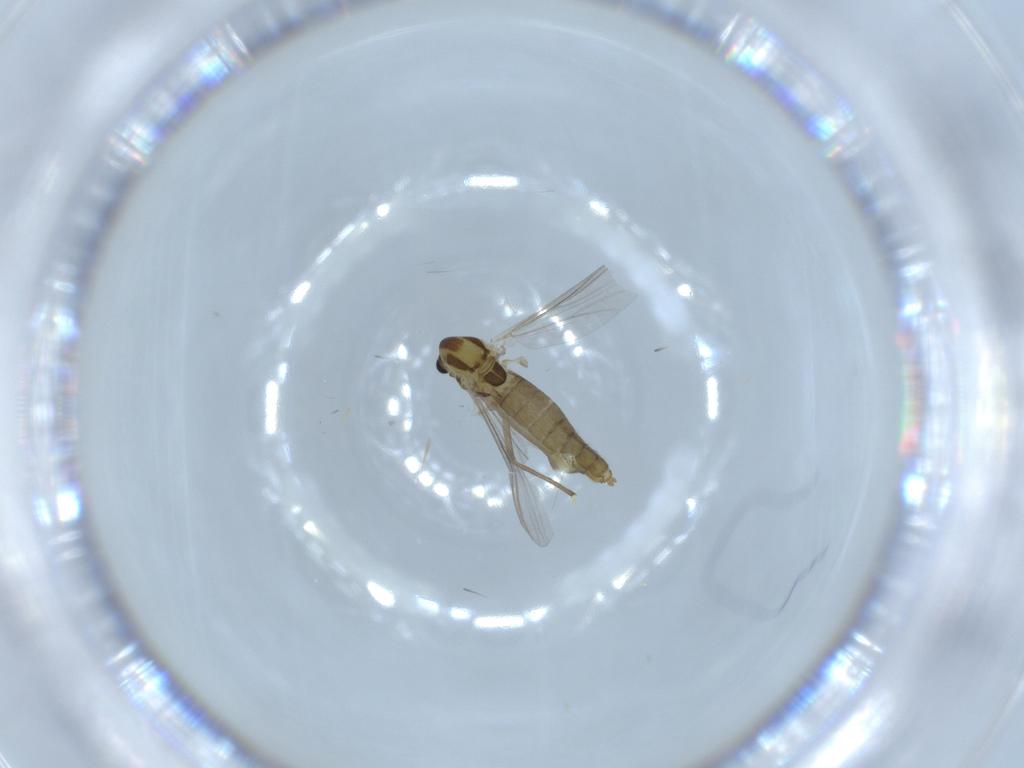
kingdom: Animalia
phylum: Arthropoda
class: Insecta
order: Diptera
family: Chironomidae
